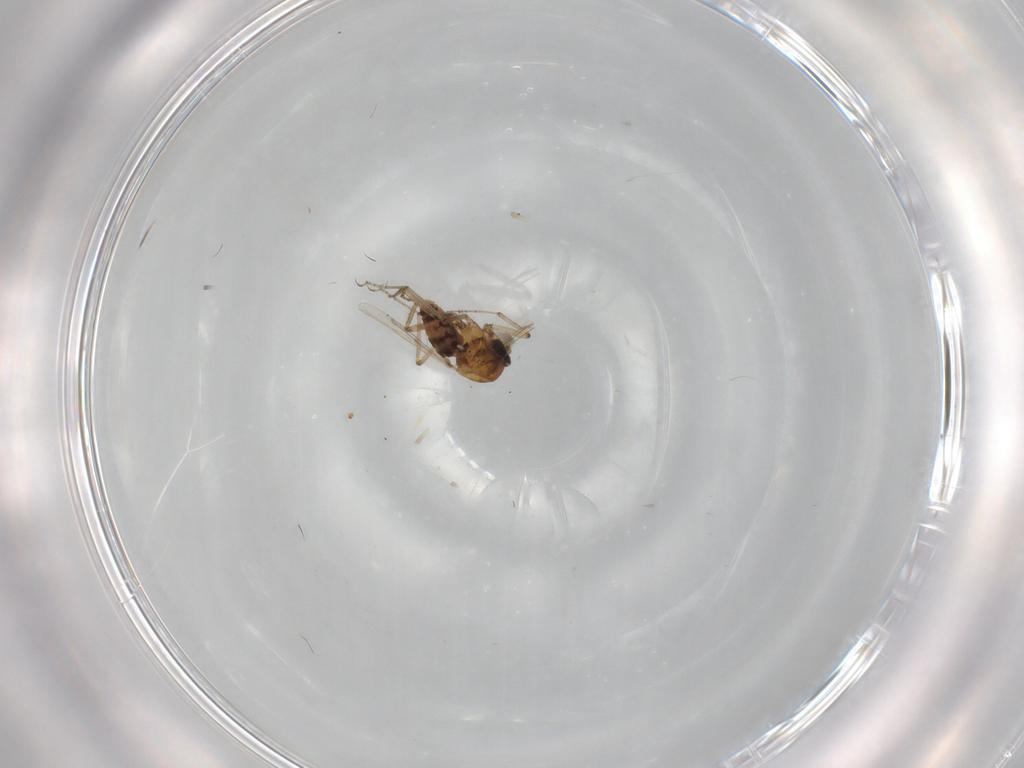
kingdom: Animalia
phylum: Arthropoda
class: Insecta
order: Diptera
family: Ceratopogonidae
